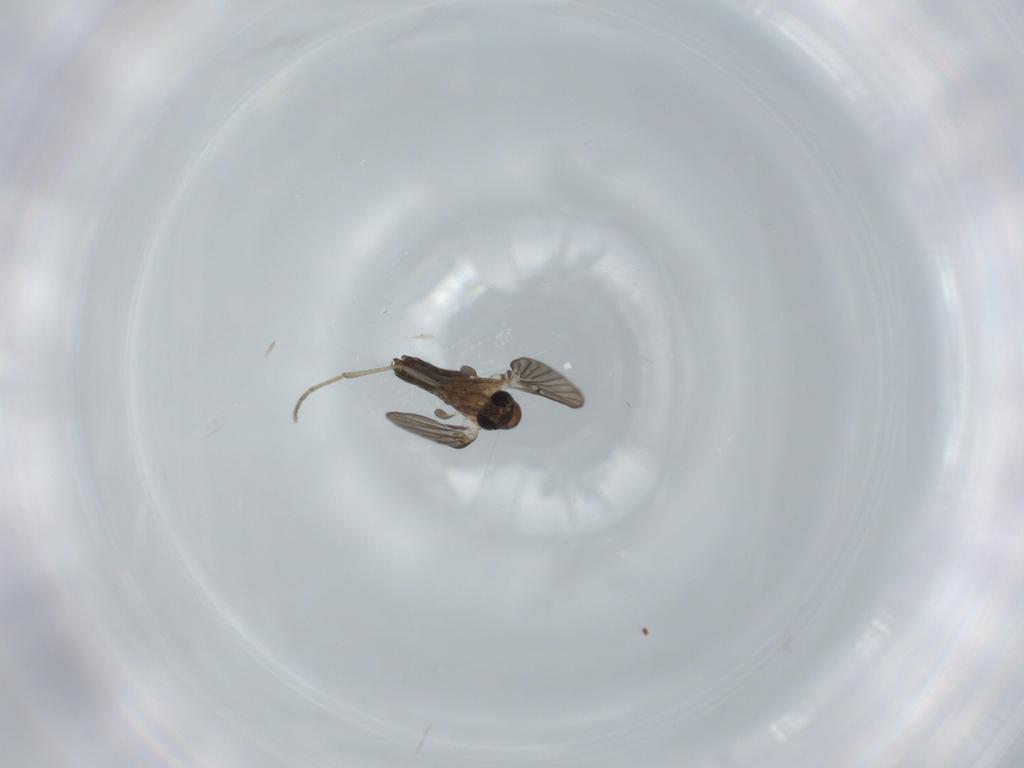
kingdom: Animalia
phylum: Arthropoda
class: Insecta
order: Diptera
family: Psychodidae
